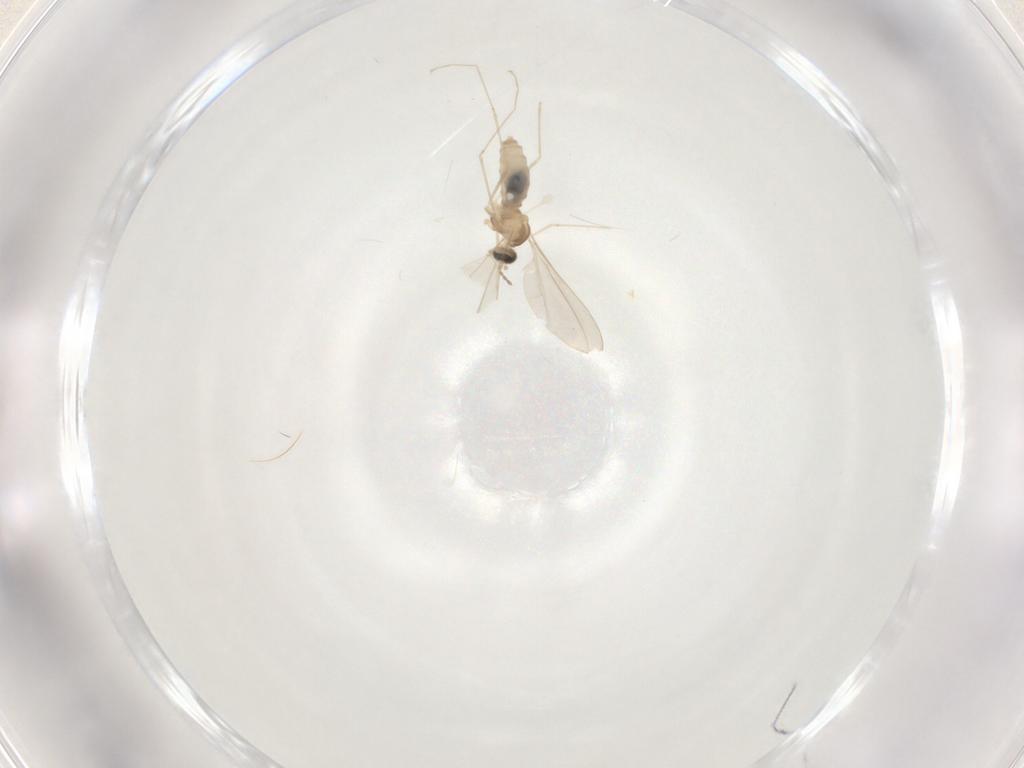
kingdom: Animalia
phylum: Arthropoda
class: Insecta
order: Diptera
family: Cecidomyiidae
